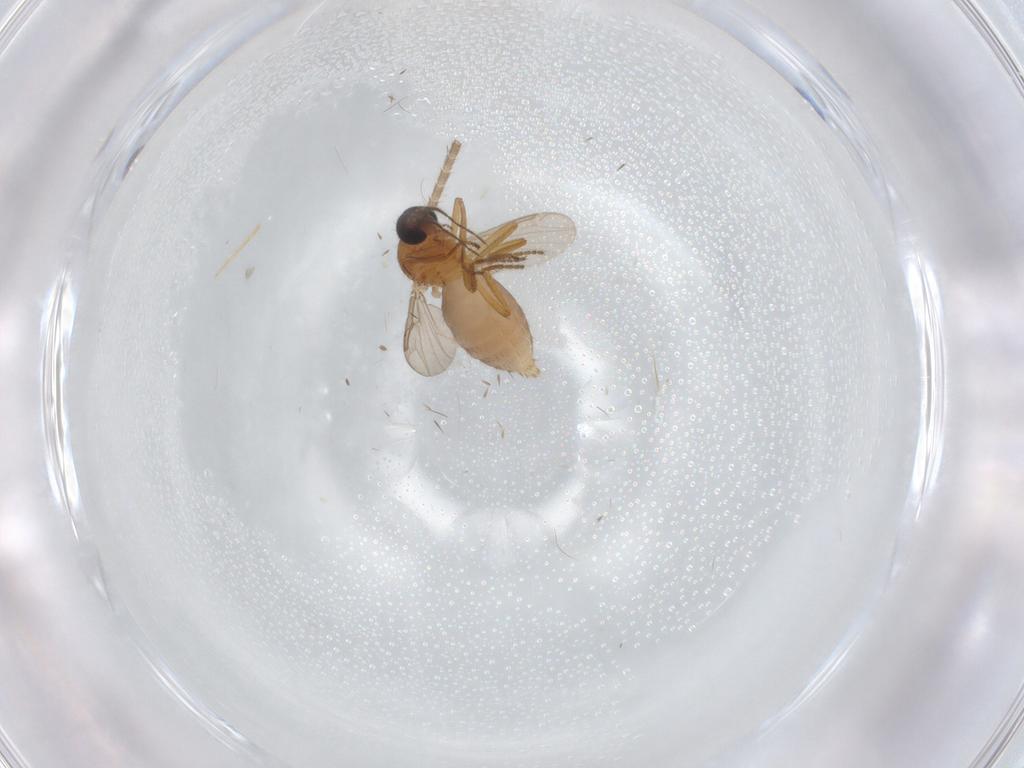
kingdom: Animalia
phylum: Arthropoda
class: Insecta
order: Diptera
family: Ceratopogonidae
